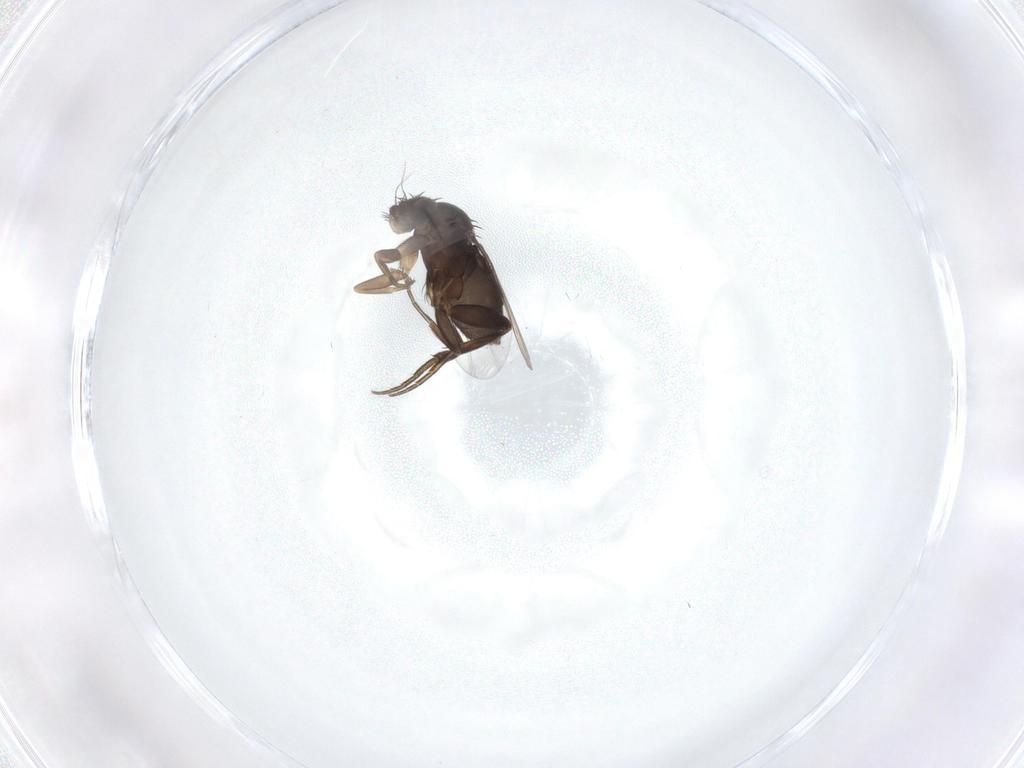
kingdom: Animalia
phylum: Arthropoda
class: Insecta
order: Diptera
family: Phoridae
